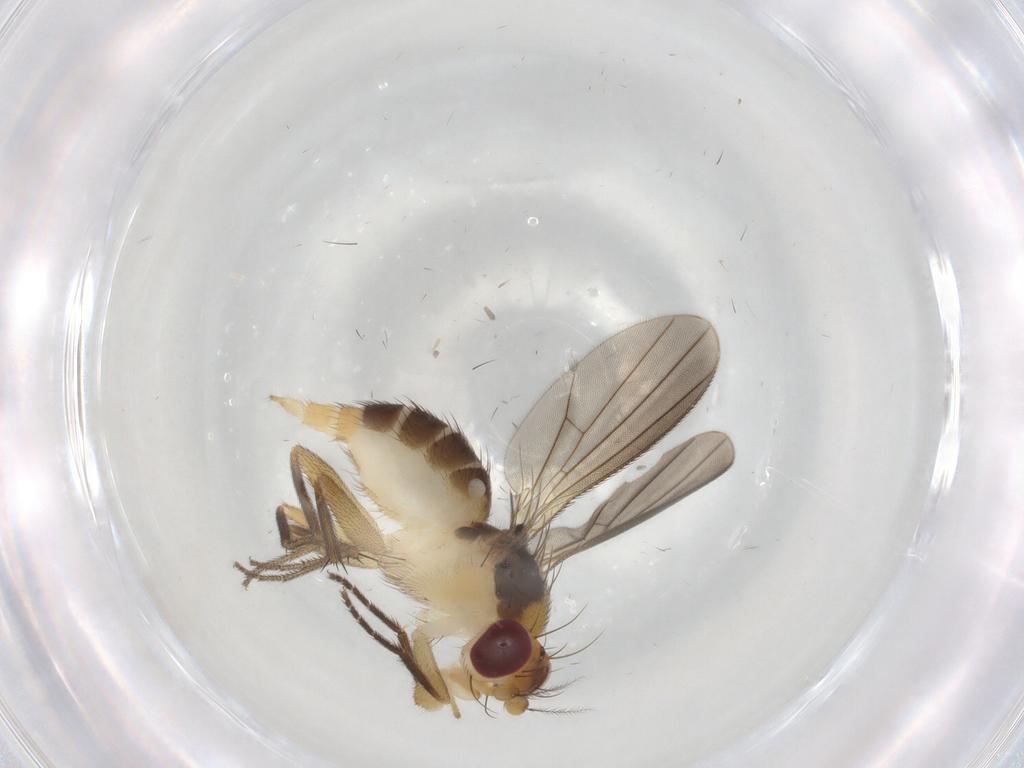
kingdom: Animalia
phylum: Arthropoda
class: Insecta
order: Diptera
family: Clusiidae
